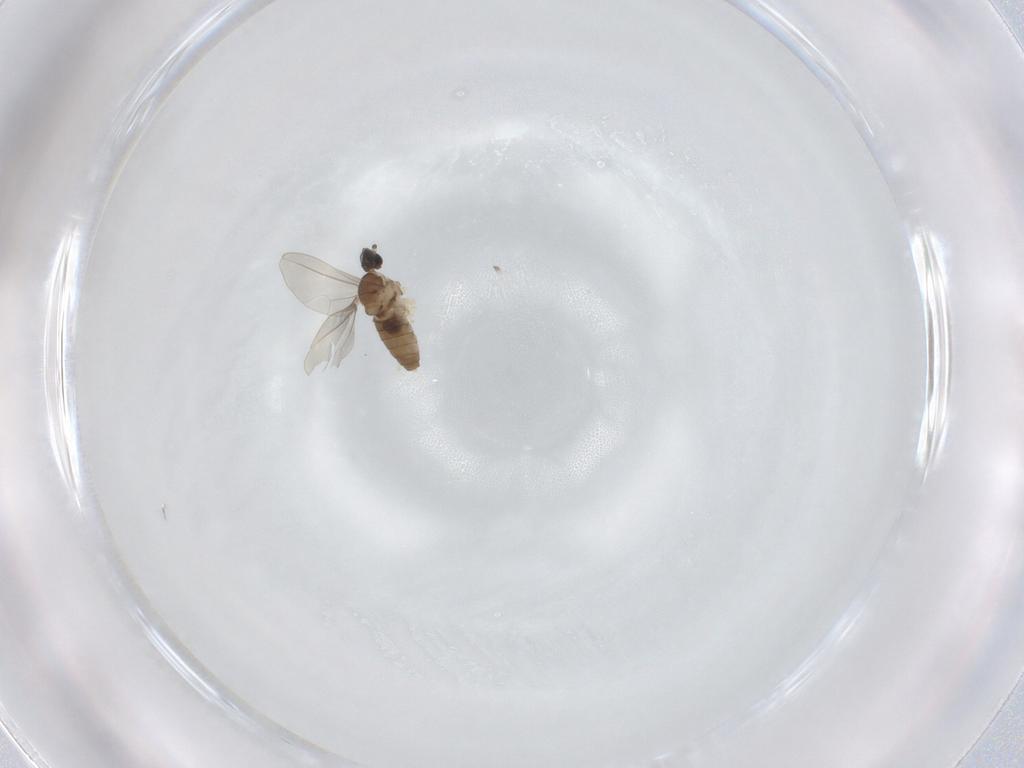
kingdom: Animalia
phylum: Arthropoda
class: Insecta
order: Diptera
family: Cecidomyiidae
